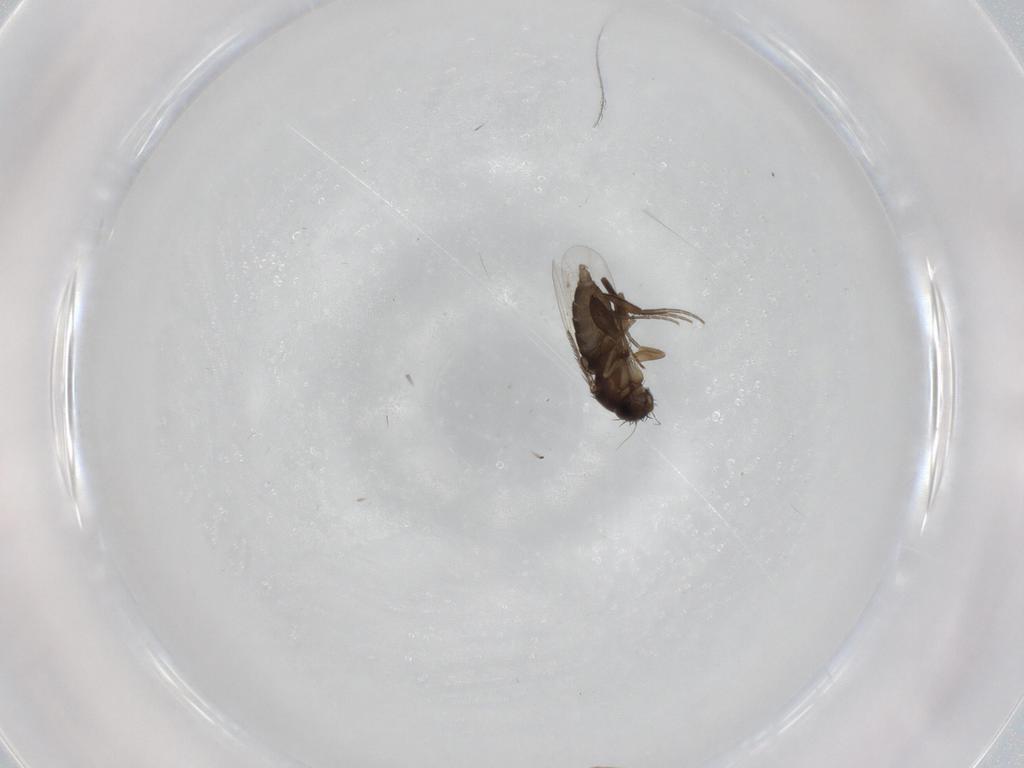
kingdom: Animalia
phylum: Arthropoda
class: Insecta
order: Diptera
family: Phoridae
